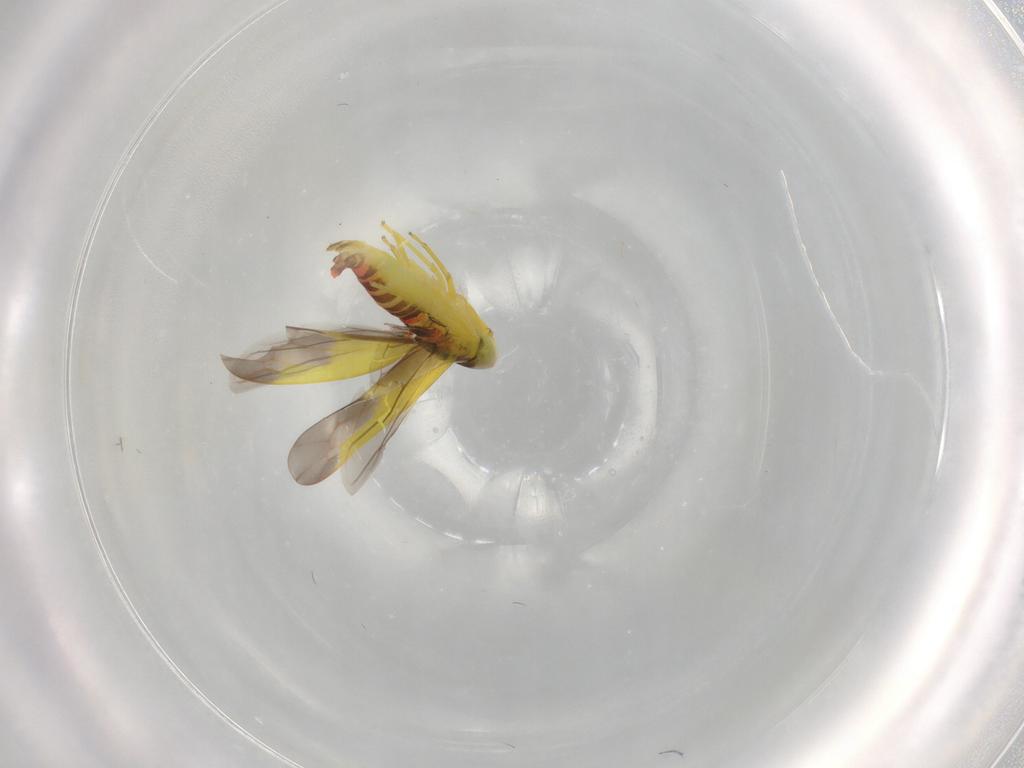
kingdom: Animalia
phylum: Arthropoda
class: Insecta
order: Hemiptera
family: Cicadellidae
